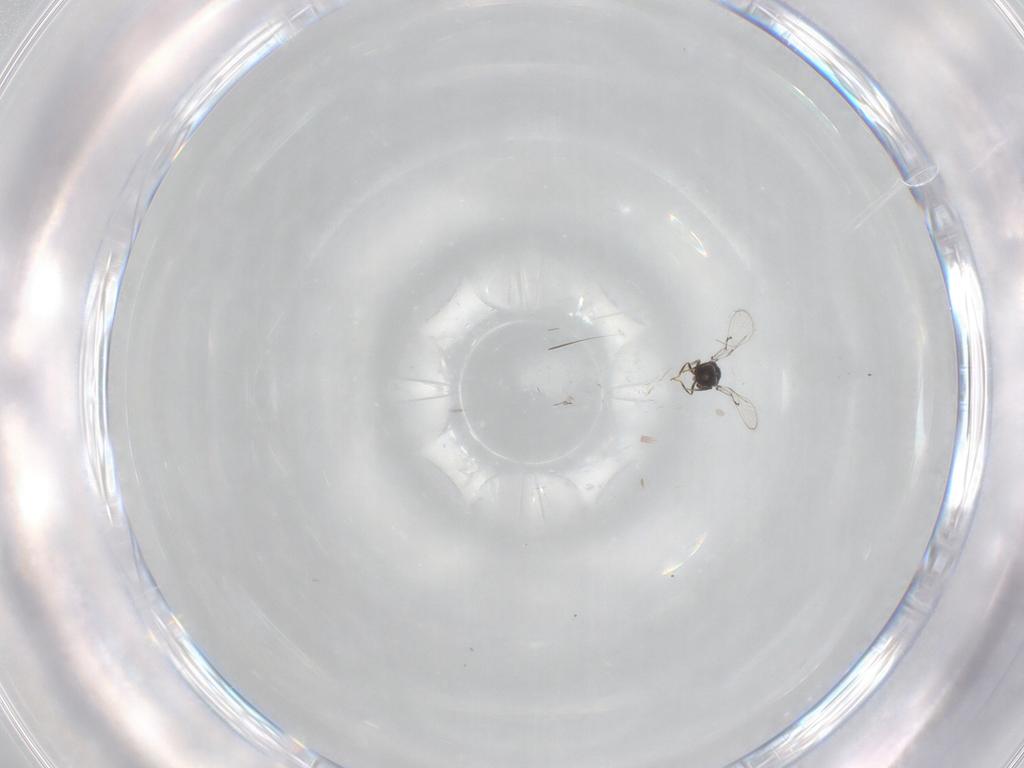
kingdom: Animalia
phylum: Arthropoda
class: Insecta
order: Hymenoptera
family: Trichogrammatidae
